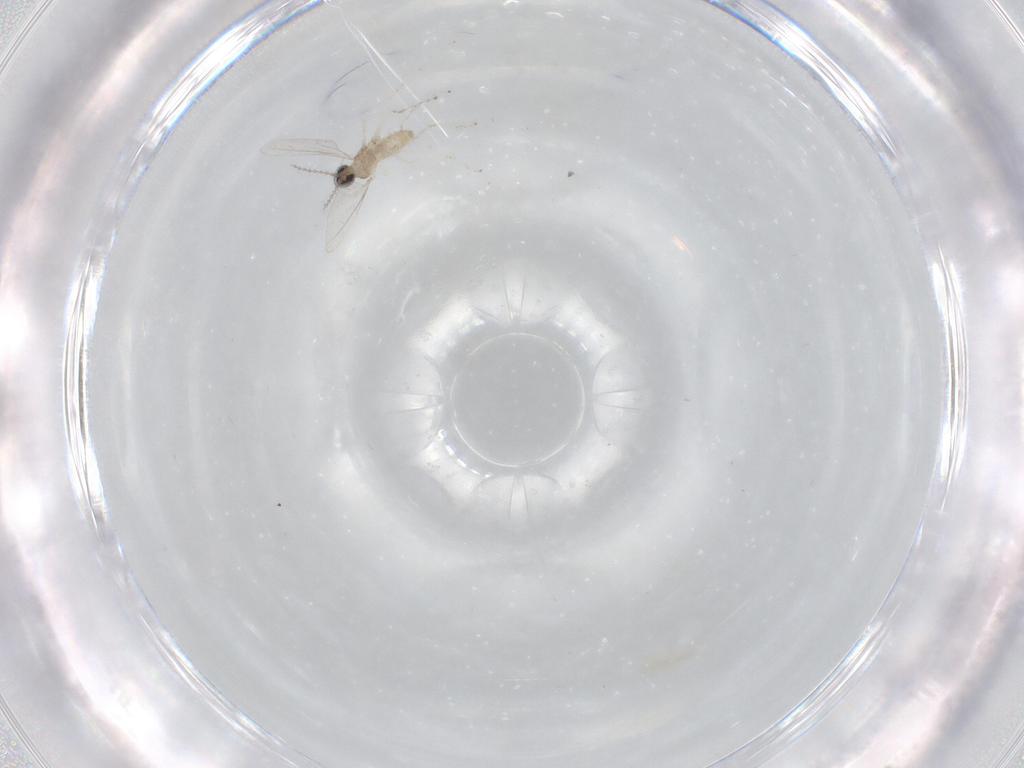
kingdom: Animalia
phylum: Arthropoda
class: Insecta
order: Diptera
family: Cecidomyiidae
